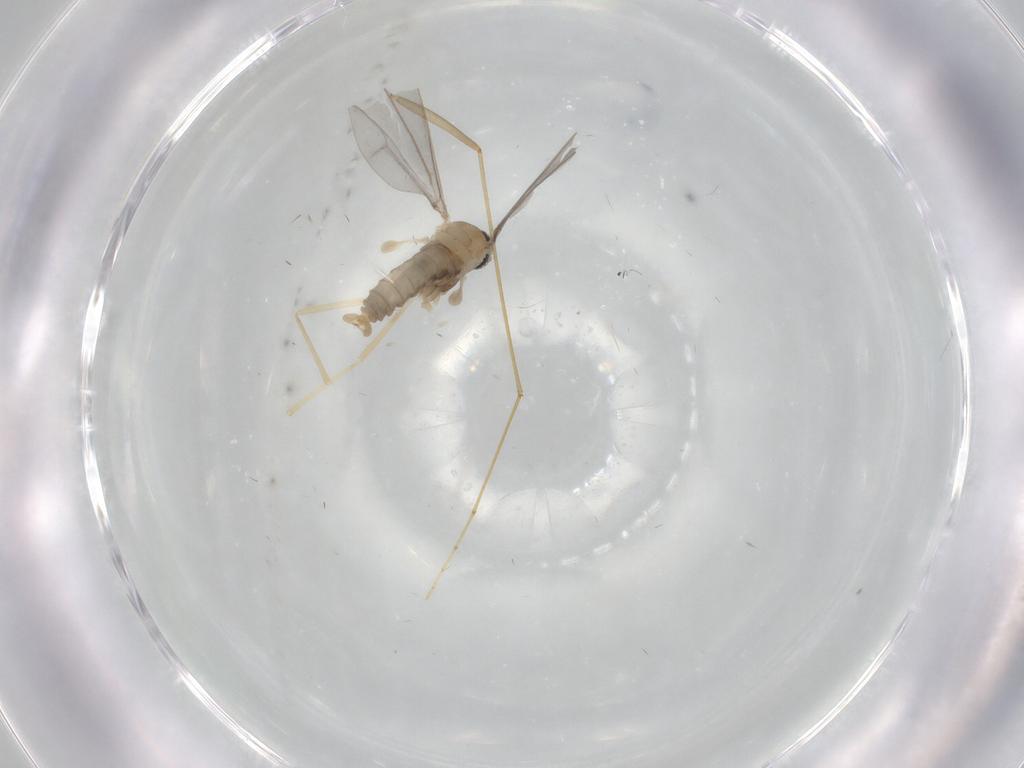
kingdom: Animalia
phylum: Arthropoda
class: Insecta
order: Diptera
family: Cecidomyiidae
